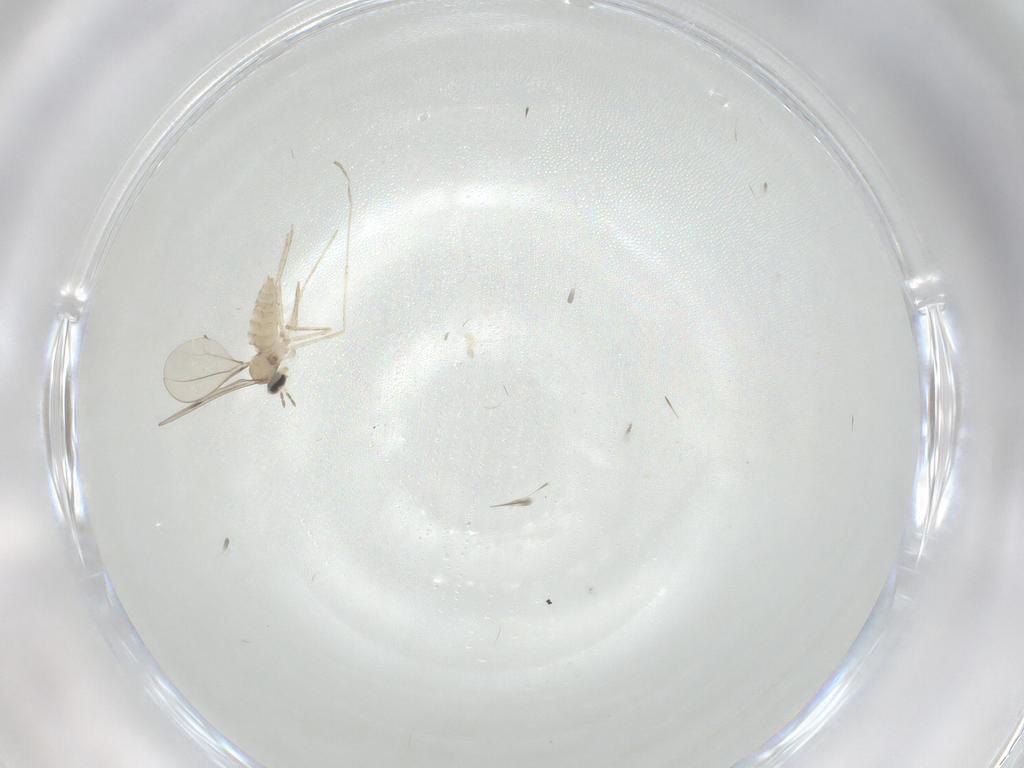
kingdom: Animalia
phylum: Arthropoda
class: Insecta
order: Diptera
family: Cecidomyiidae
